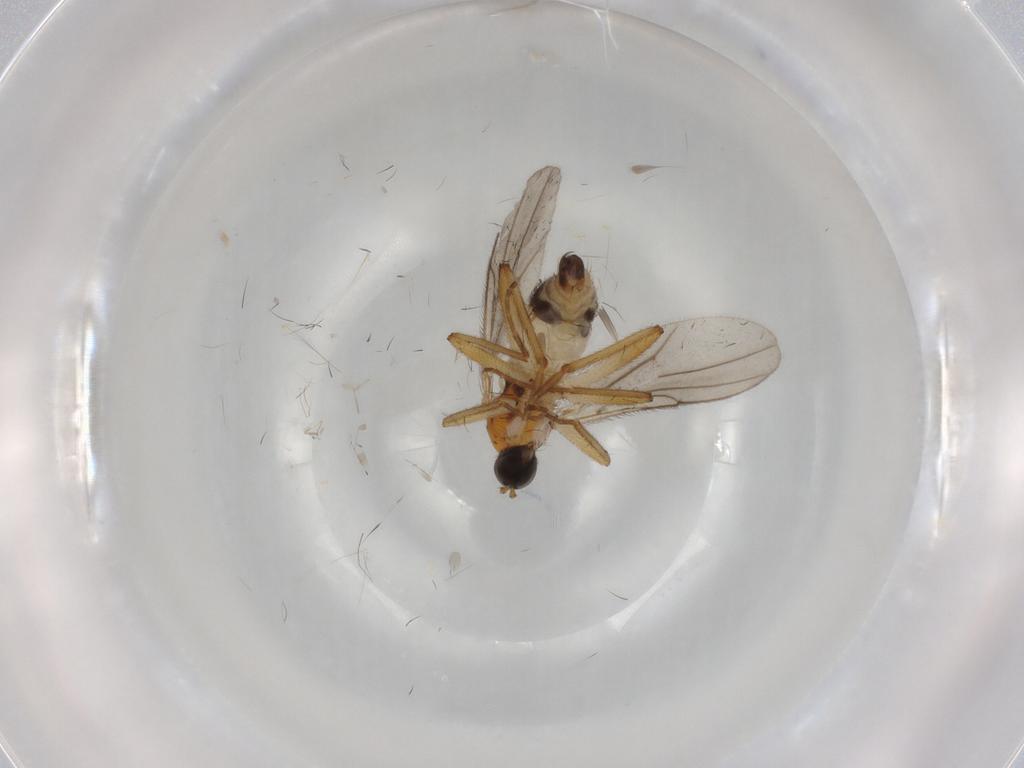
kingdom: Animalia
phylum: Arthropoda
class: Insecta
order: Diptera
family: Hybotidae
